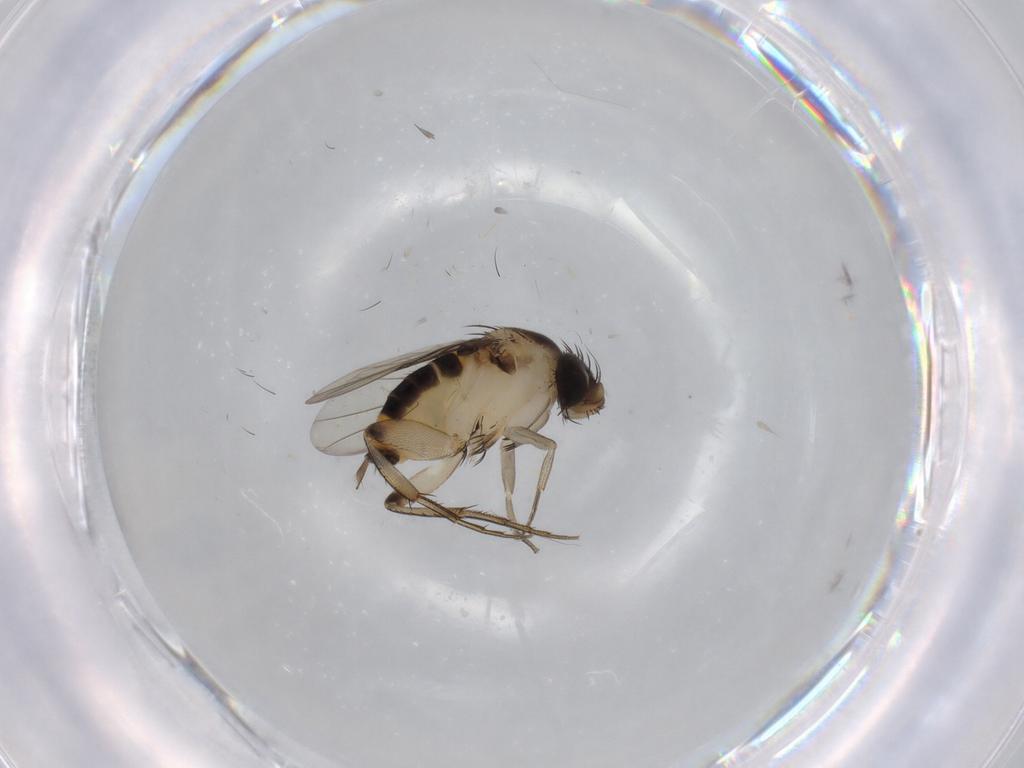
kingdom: Animalia
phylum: Arthropoda
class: Insecta
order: Diptera
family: Phoridae
